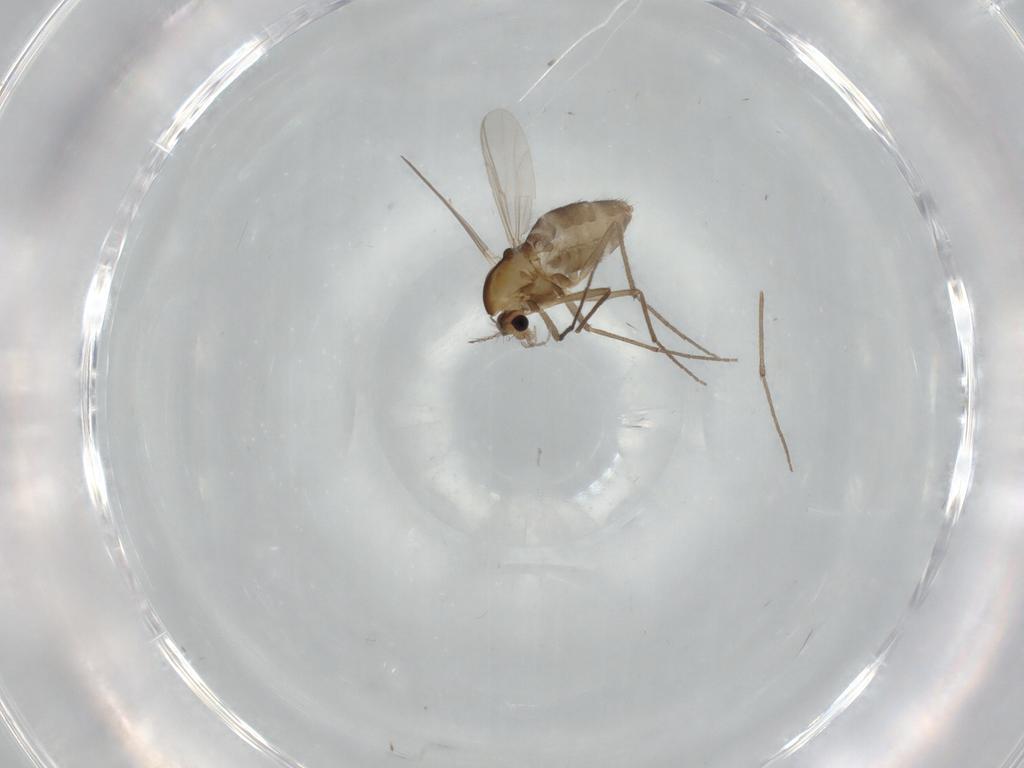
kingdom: Animalia
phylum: Arthropoda
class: Insecta
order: Diptera
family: Chironomidae
